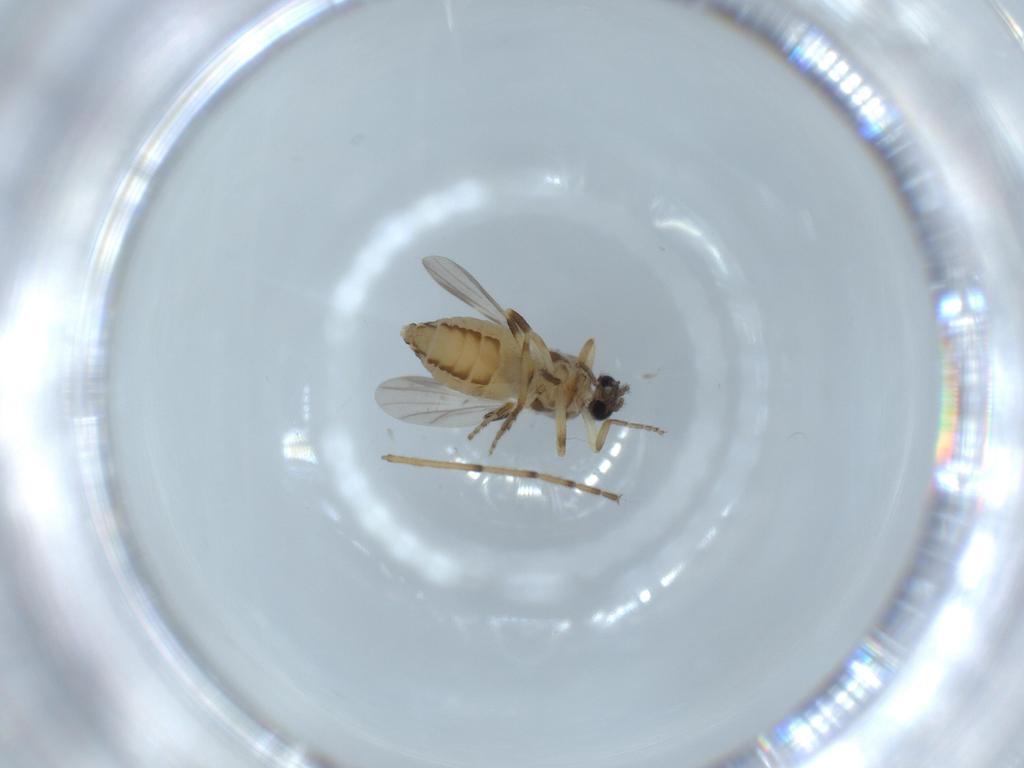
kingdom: Animalia
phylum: Arthropoda
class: Insecta
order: Diptera
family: Ceratopogonidae
